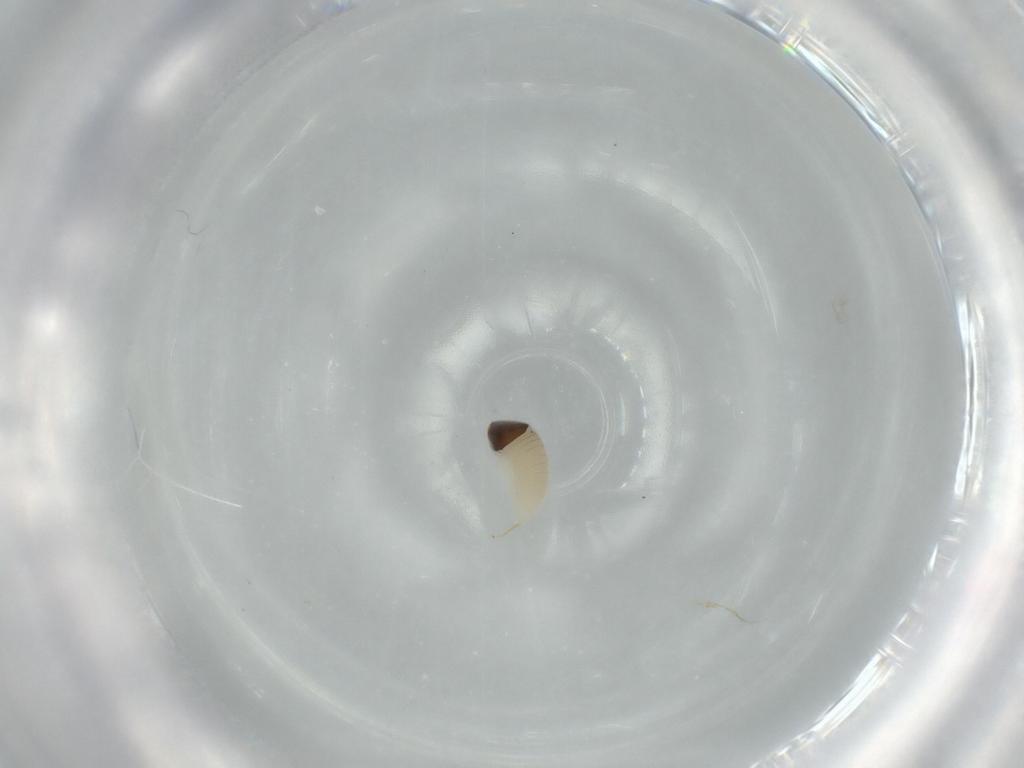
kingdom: Animalia
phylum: Arthropoda
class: Insecta
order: Hymenoptera
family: Ichneumonidae
